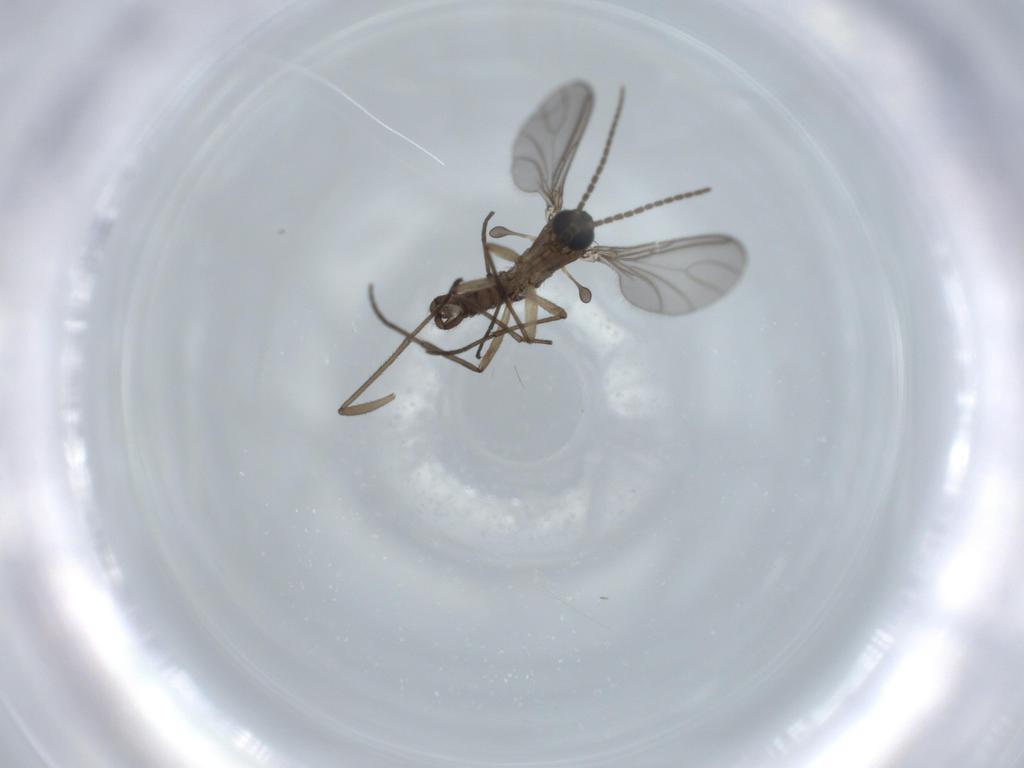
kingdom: Animalia
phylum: Arthropoda
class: Insecta
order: Diptera
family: Sciaridae
